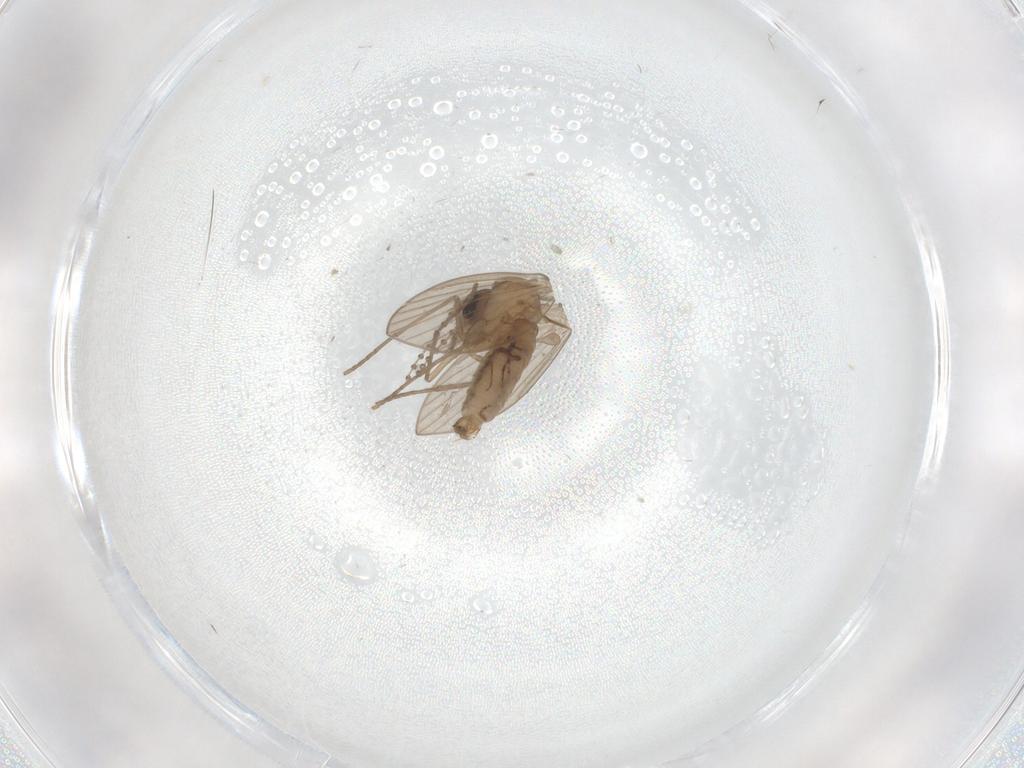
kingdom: Animalia
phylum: Arthropoda
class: Insecta
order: Diptera
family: Psychodidae
